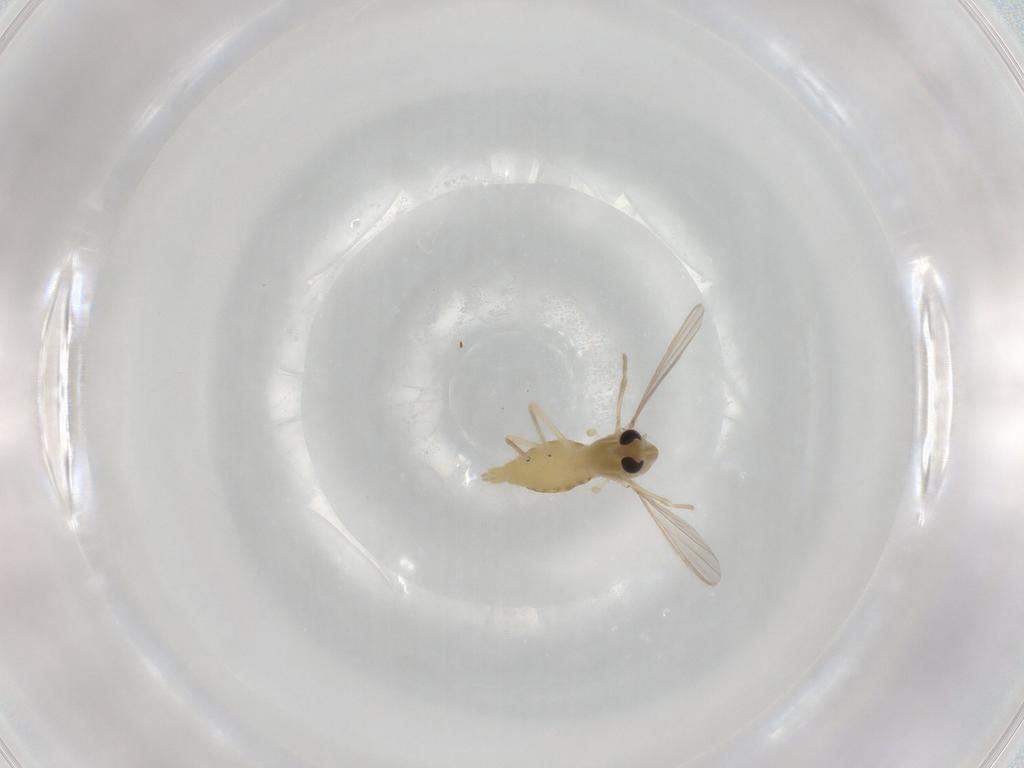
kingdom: Animalia
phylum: Arthropoda
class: Insecta
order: Diptera
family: Chironomidae
